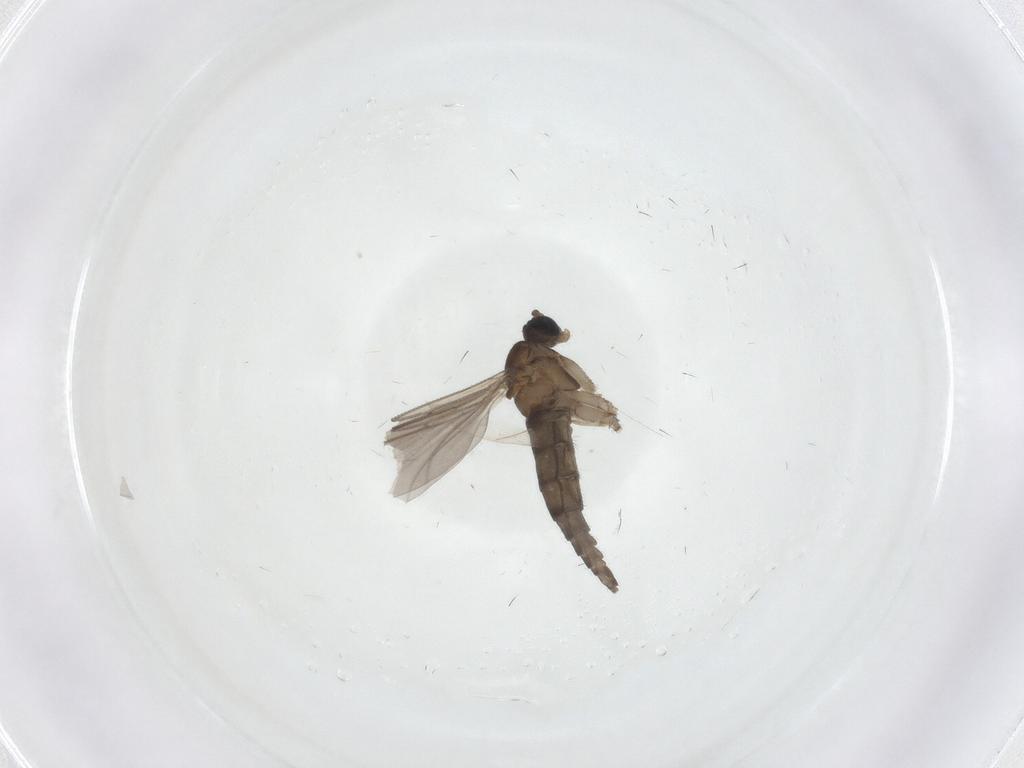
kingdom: Animalia
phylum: Arthropoda
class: Insecta
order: Diptera
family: Sciaridae
